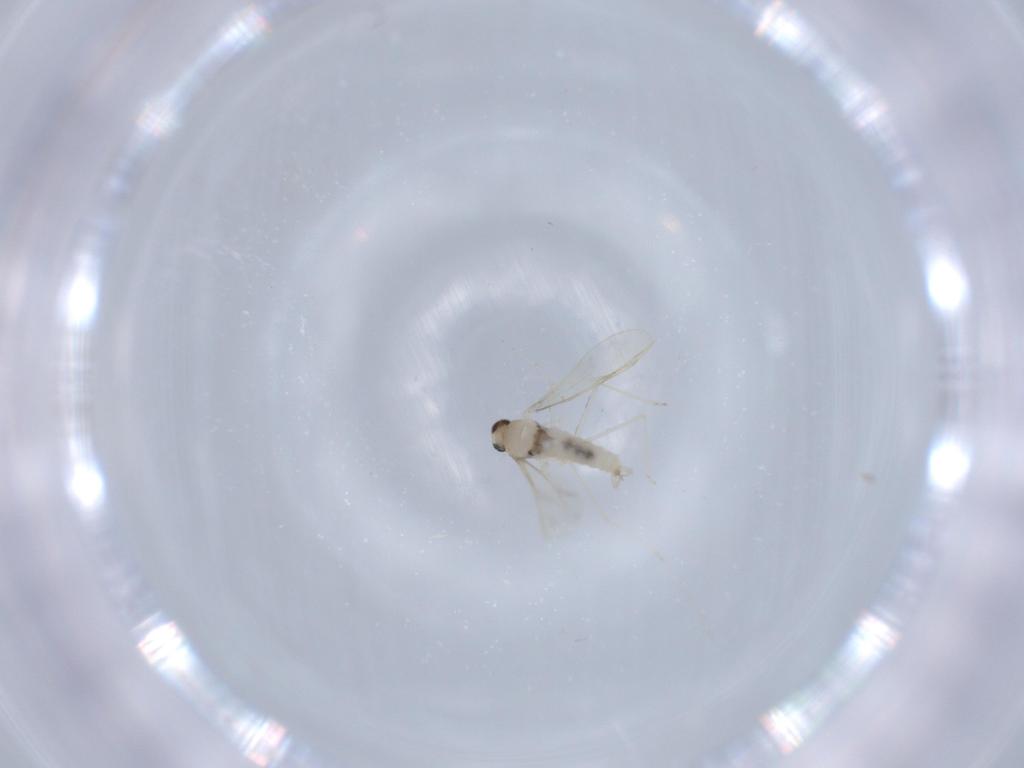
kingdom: Animalia
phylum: Arthropoda
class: Insecta
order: Diptera
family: Cecidomyiidae
